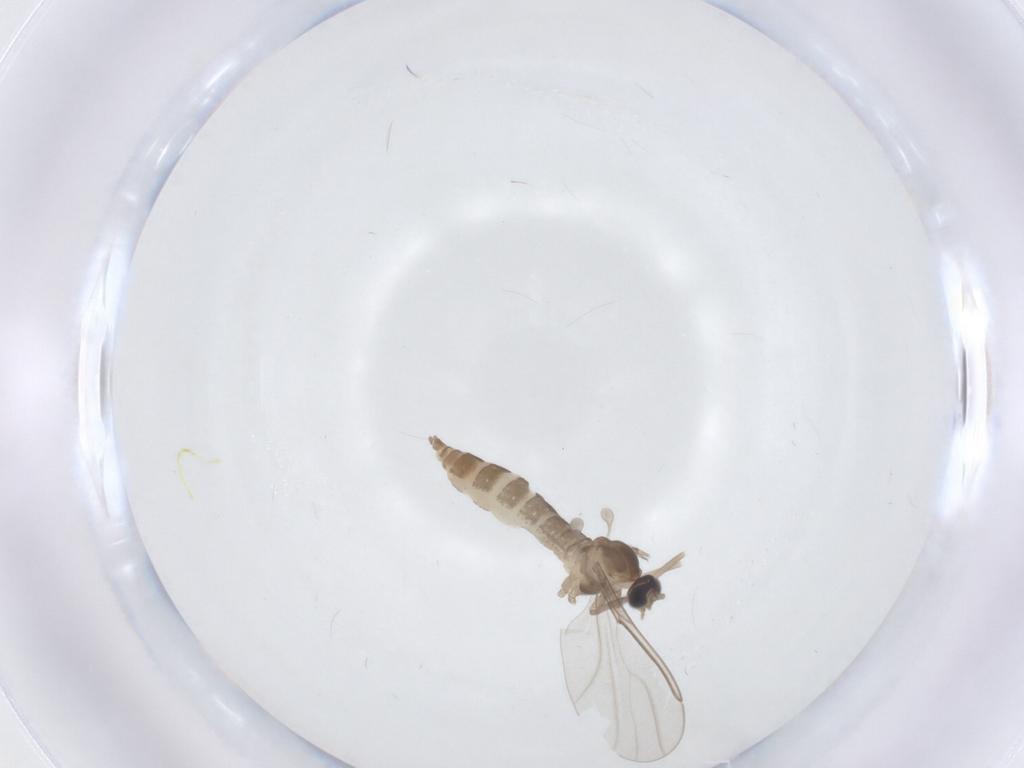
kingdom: Animalia
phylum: Arthropoda
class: Insecta
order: Diptera
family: Cecidomyiidae
